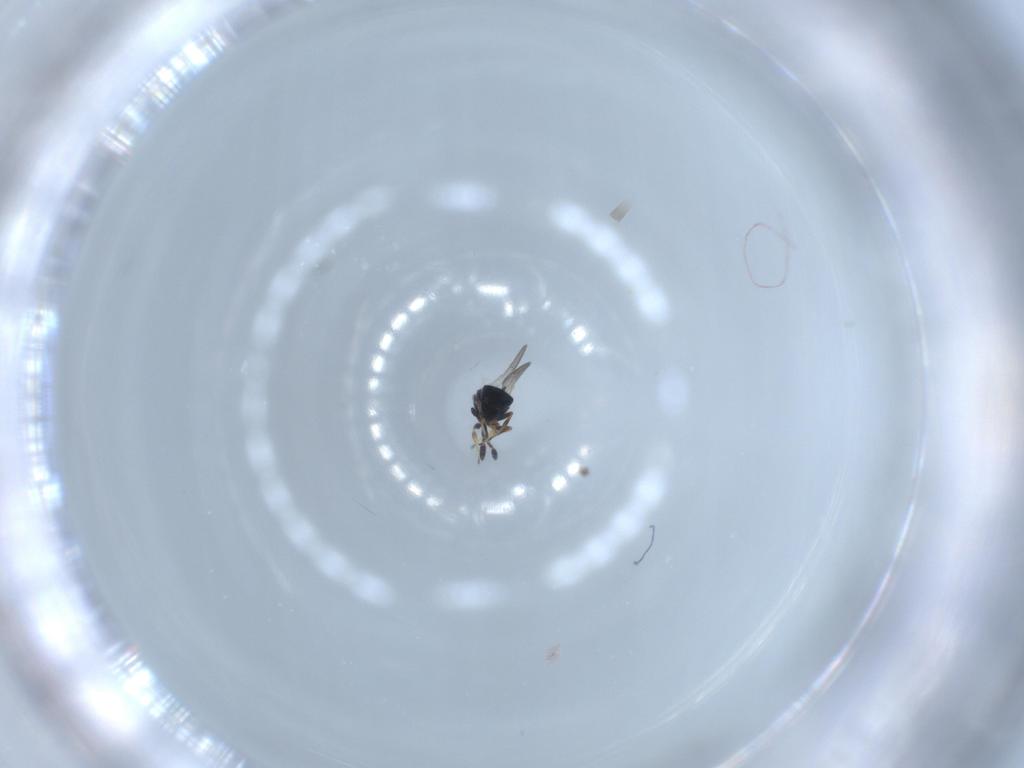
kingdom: Animalia
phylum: Arthropoda
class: Insecta
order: Hymenoptera
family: Scelionidae
